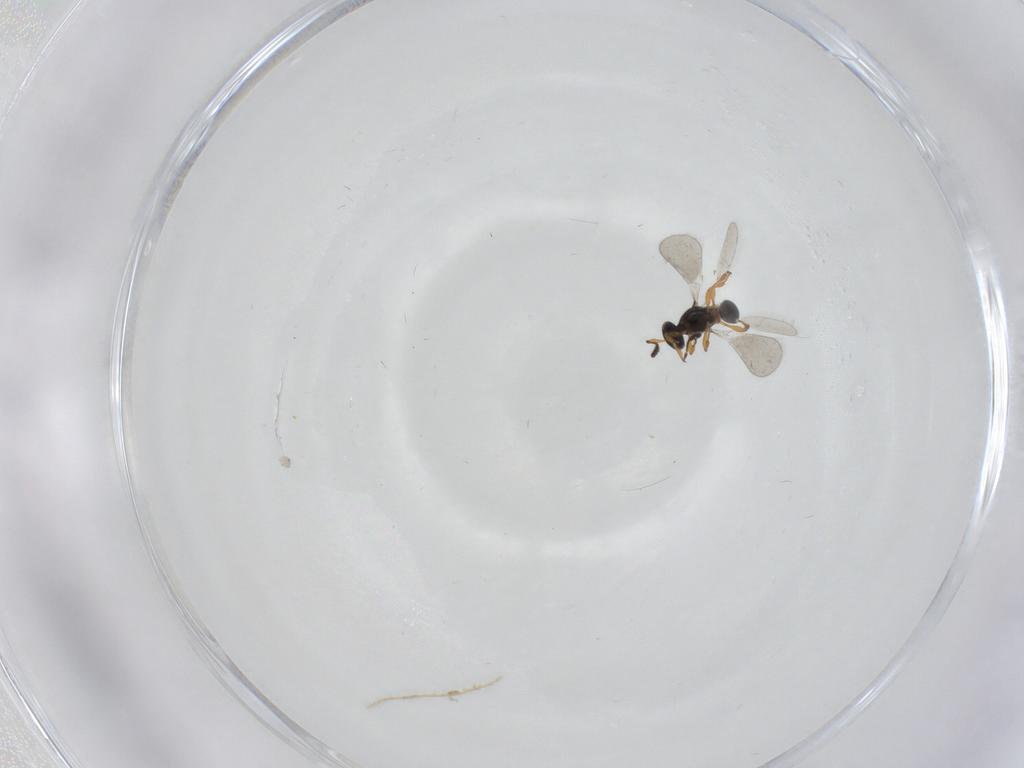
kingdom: Animalia
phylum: Arthropoda
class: Insecta
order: Hymenoptera
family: Platygastridae
